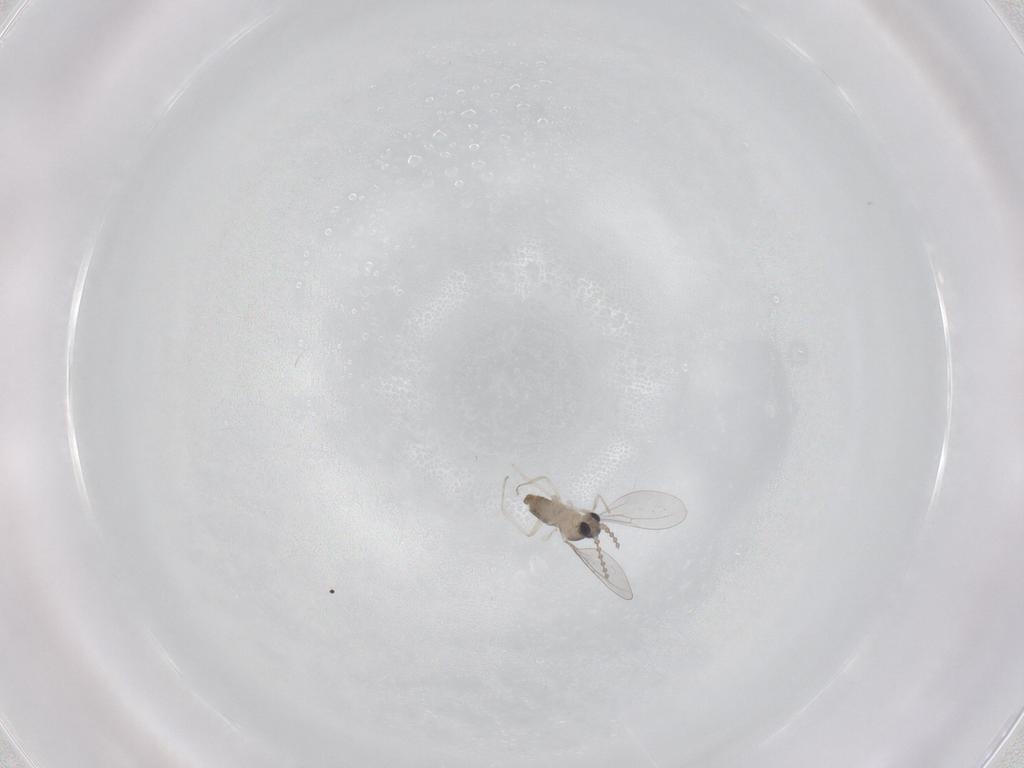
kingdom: Animalia
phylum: Arthropoda
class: Insecta
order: Diptera
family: Cecidomyiidae
